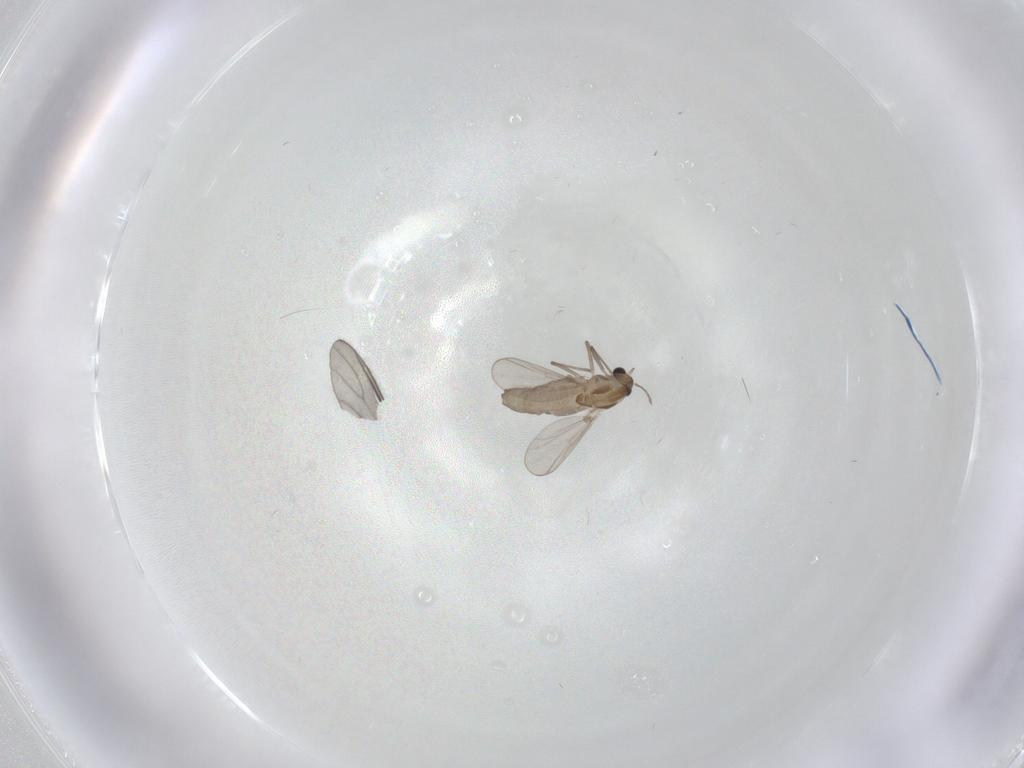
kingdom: Animalia
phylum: Arthropoda
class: Insecta
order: Diptera
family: Chironomidae
